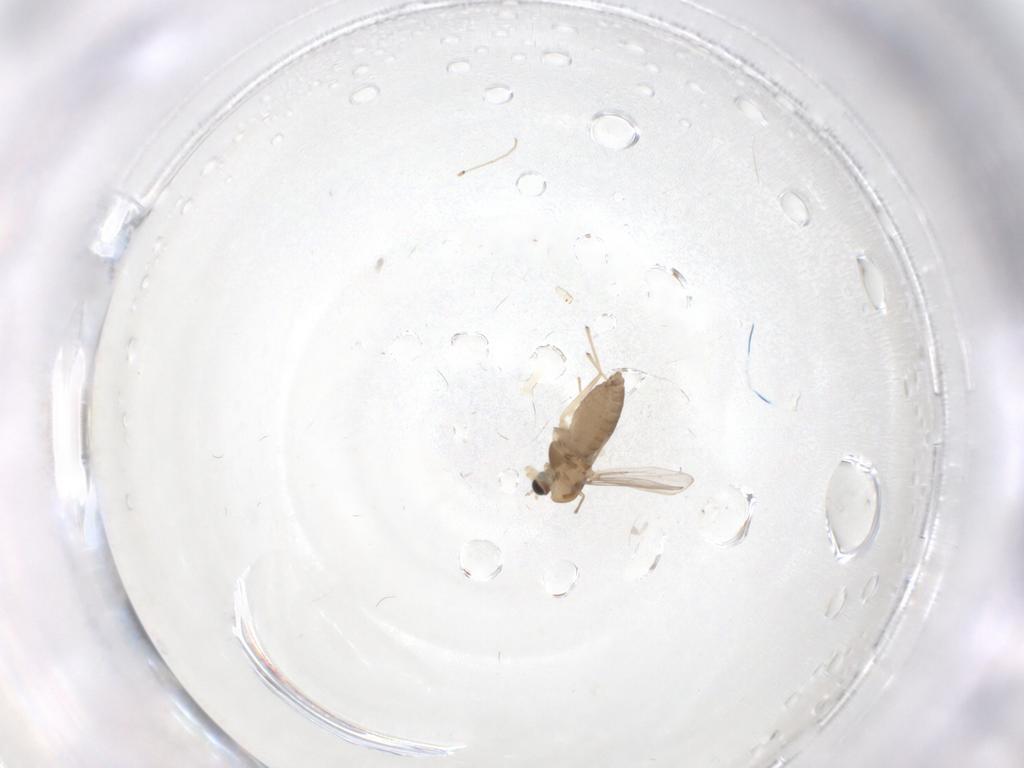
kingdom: Animalia
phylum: Arthropoda
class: Insecta
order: Diptera
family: Chironomidae
